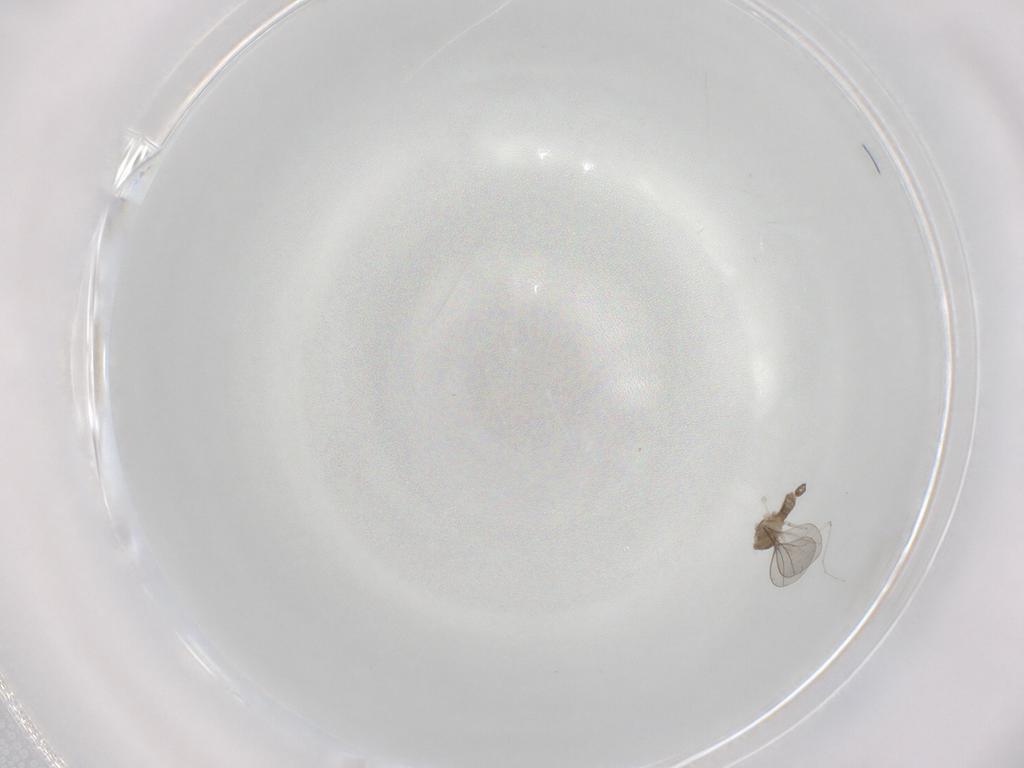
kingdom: Animalia
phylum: Arthropoda
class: Insecta
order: Diptera
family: Cecidomyiidae
